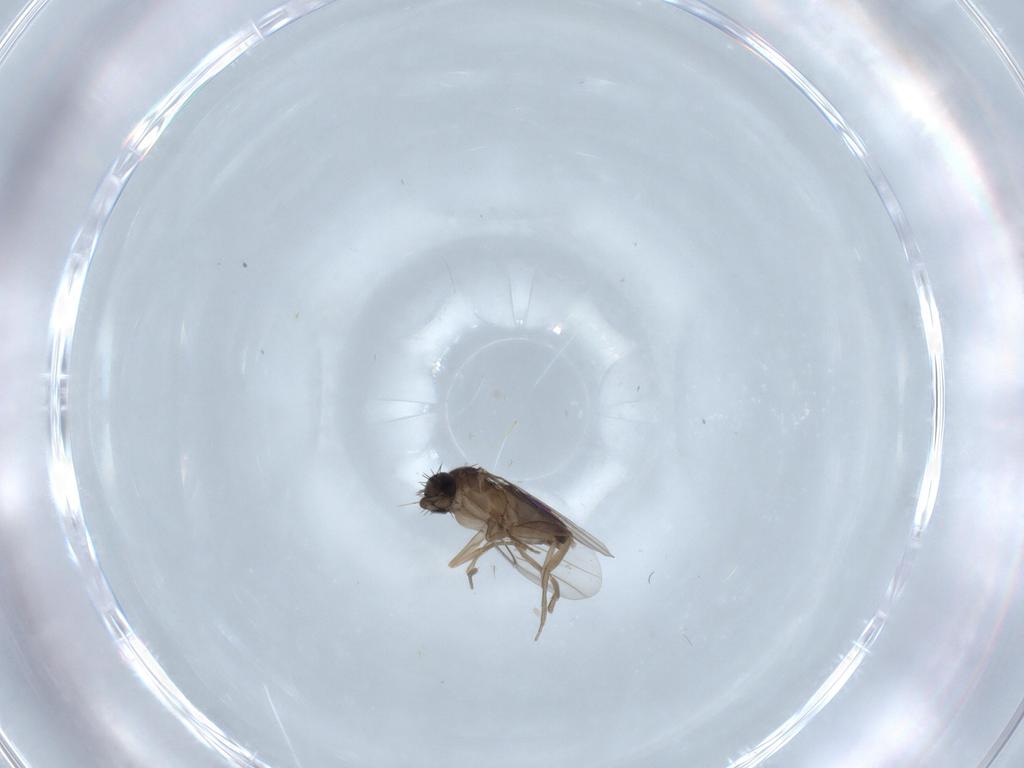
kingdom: Animalia
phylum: Arthropoda
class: Insecta
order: Diptera
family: Phoridae
